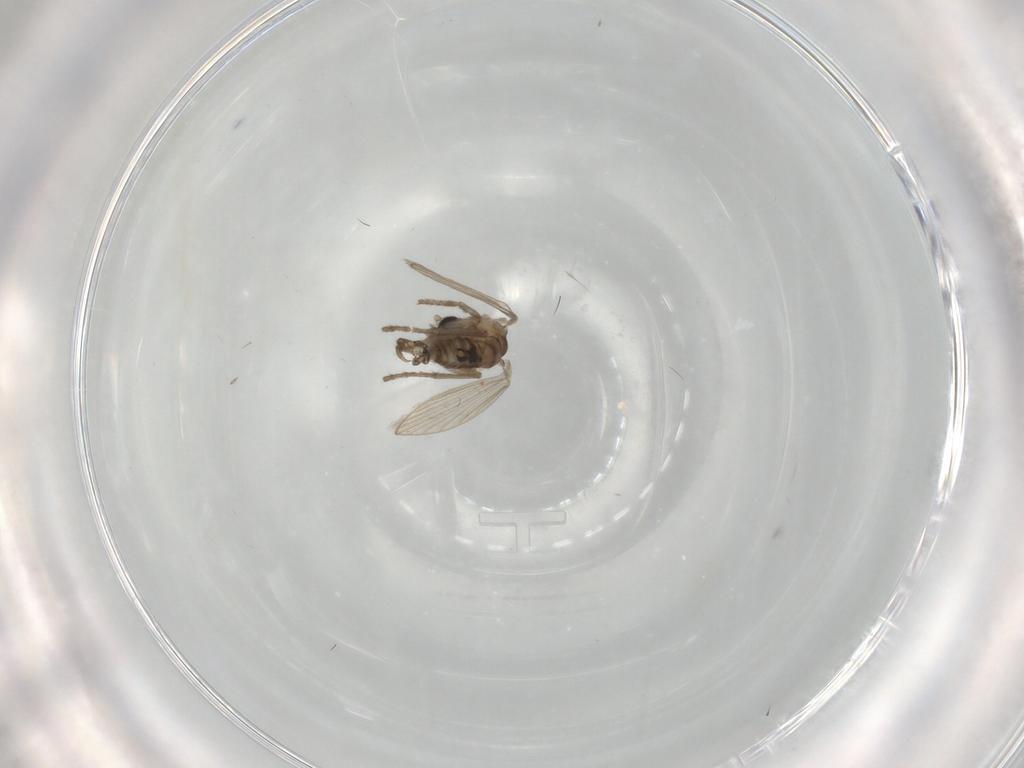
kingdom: Animalia
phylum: Arthropoda
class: Insecta
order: Diptera
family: Psychodidae
